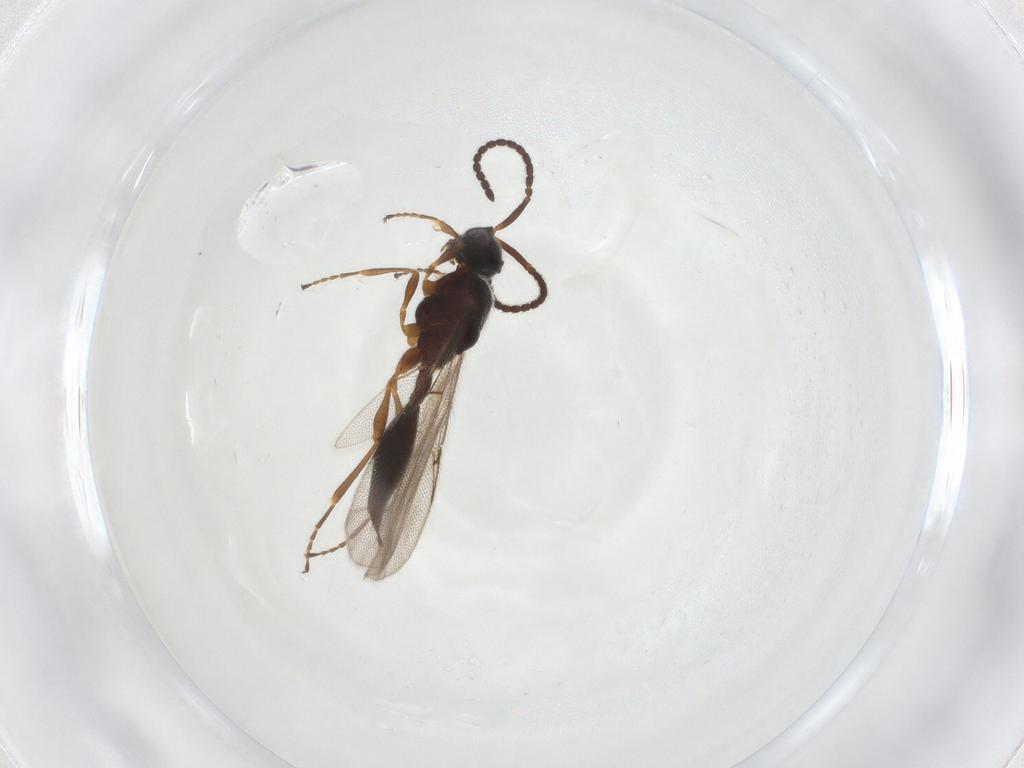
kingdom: Animalia
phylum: Arthropoda
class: Insecta
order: Hymenoptera
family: Diapriidae
